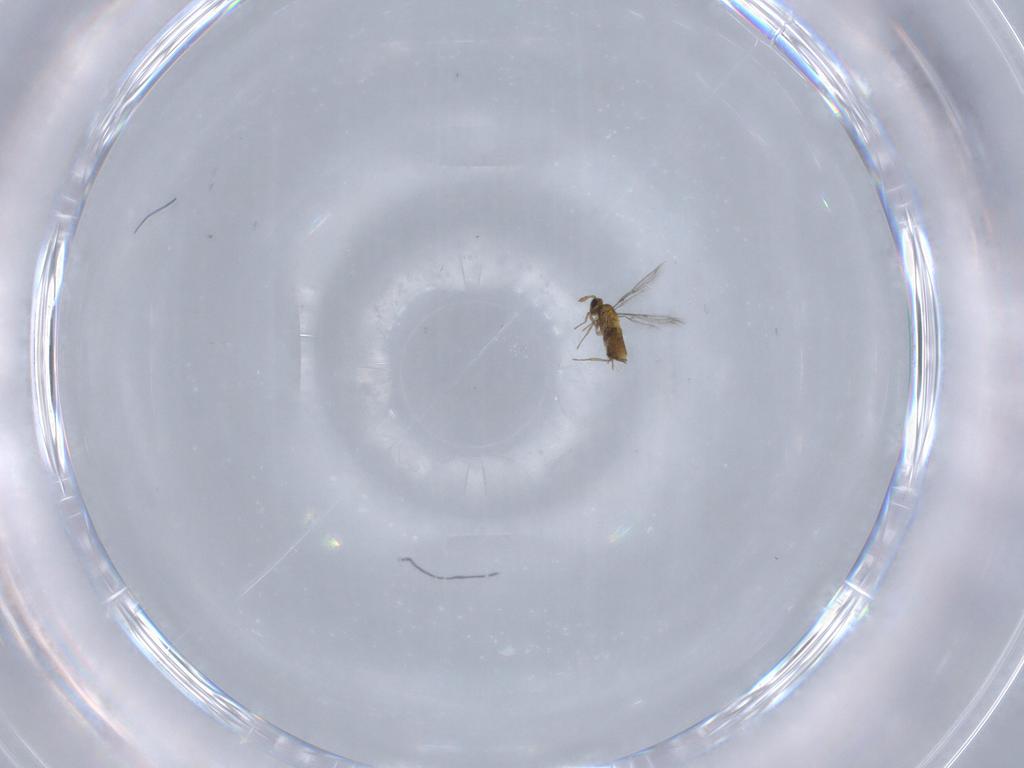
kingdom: Animalia
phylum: Arthropoda
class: Insecta
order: Hymenoptera
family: Trichogrammatidae
